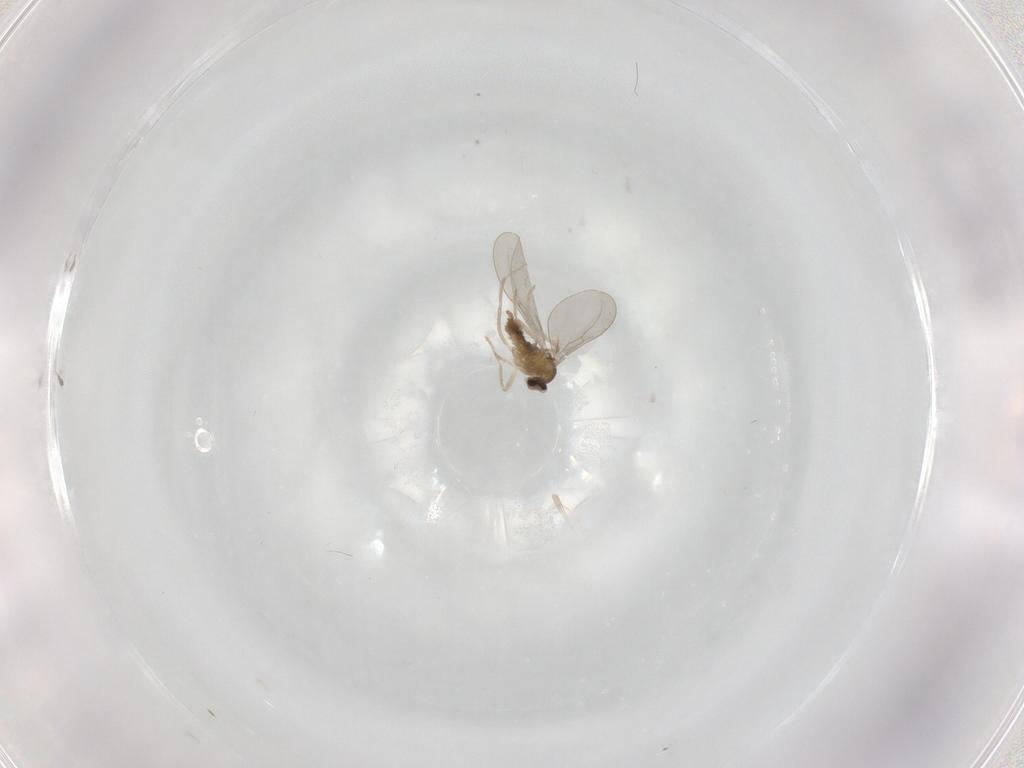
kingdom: Animalia
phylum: Arthropoda
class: Insecta
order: Diptera
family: Cecidomyiidae
